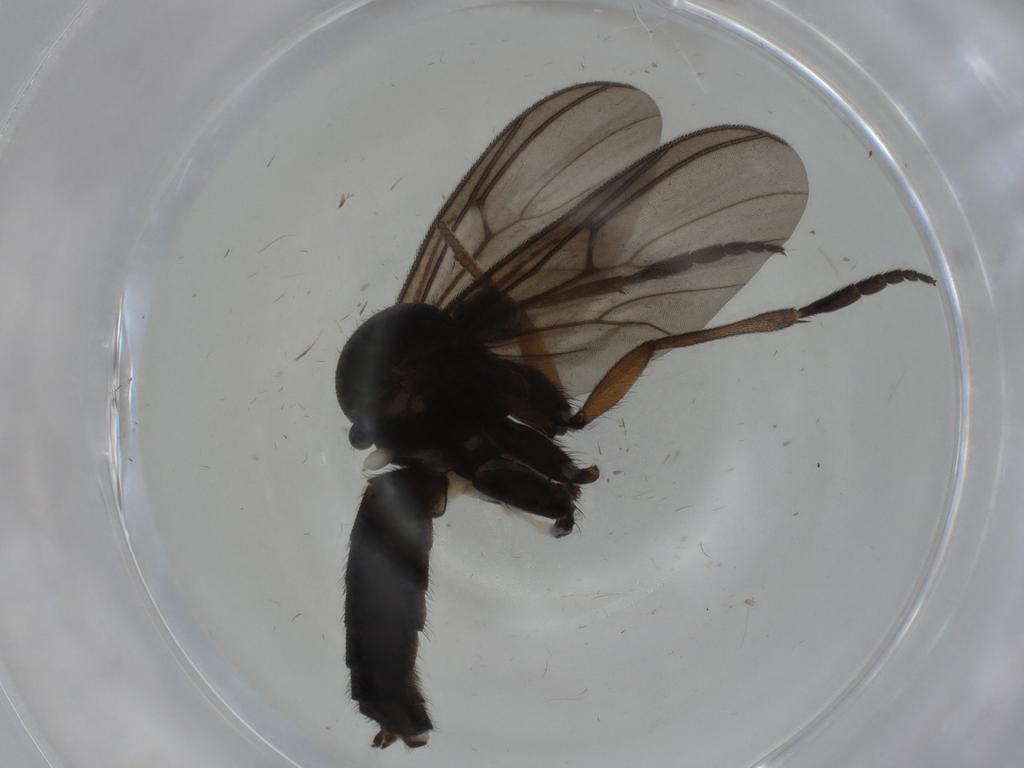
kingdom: Animalia
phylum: Arthropoda
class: Insecta
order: Diptera
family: Mycetophilidae
